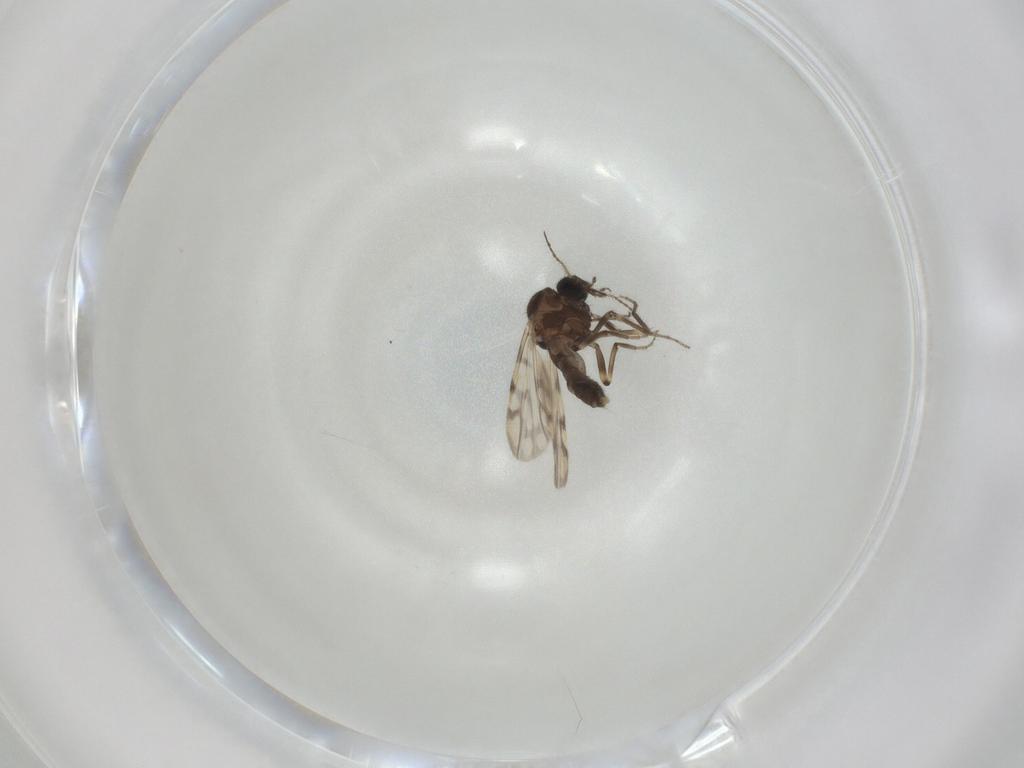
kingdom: Animalia
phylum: Arthropoda
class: Insecta
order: Diptera
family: Ceratopogonidae
